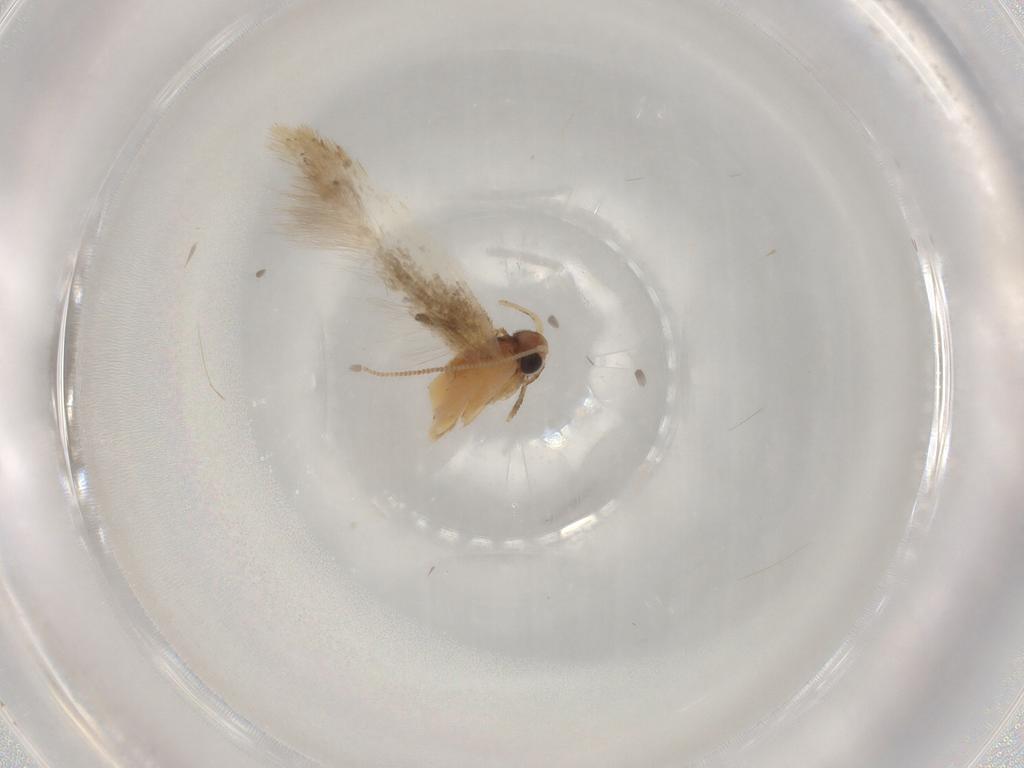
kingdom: Animalia
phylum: Arthropoda
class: Insecta
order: Lepidoptera
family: Tineidae
